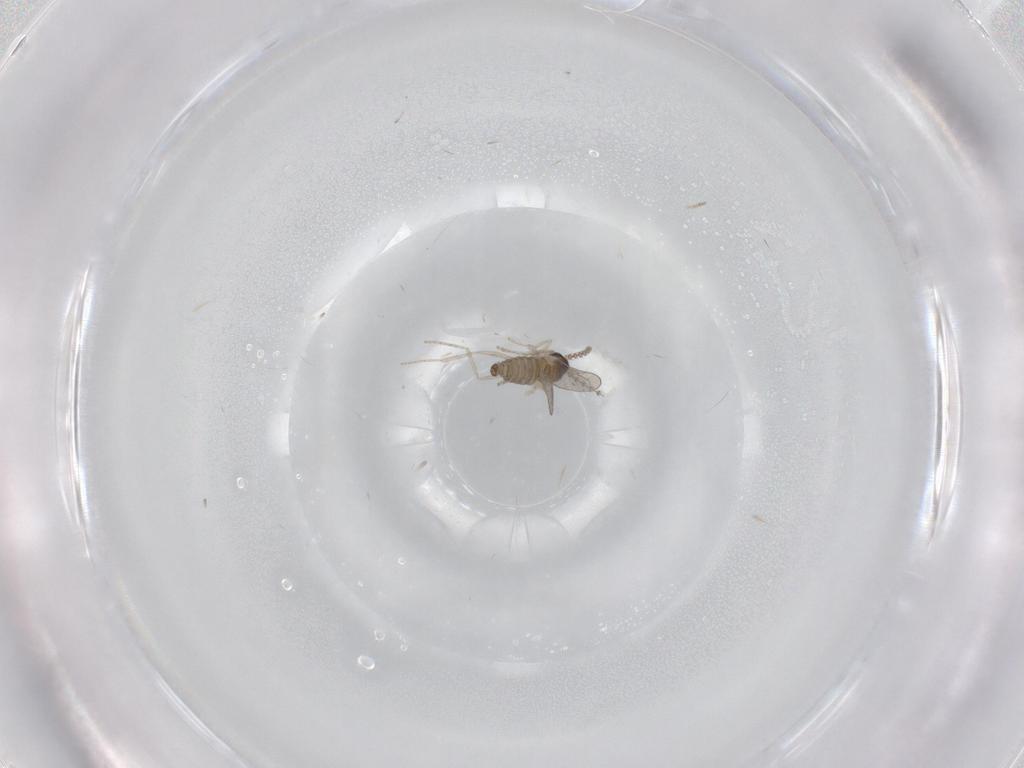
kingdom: Animalia
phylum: Arthropoda
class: Insecta
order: Diptera
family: Cecidomyiidae
